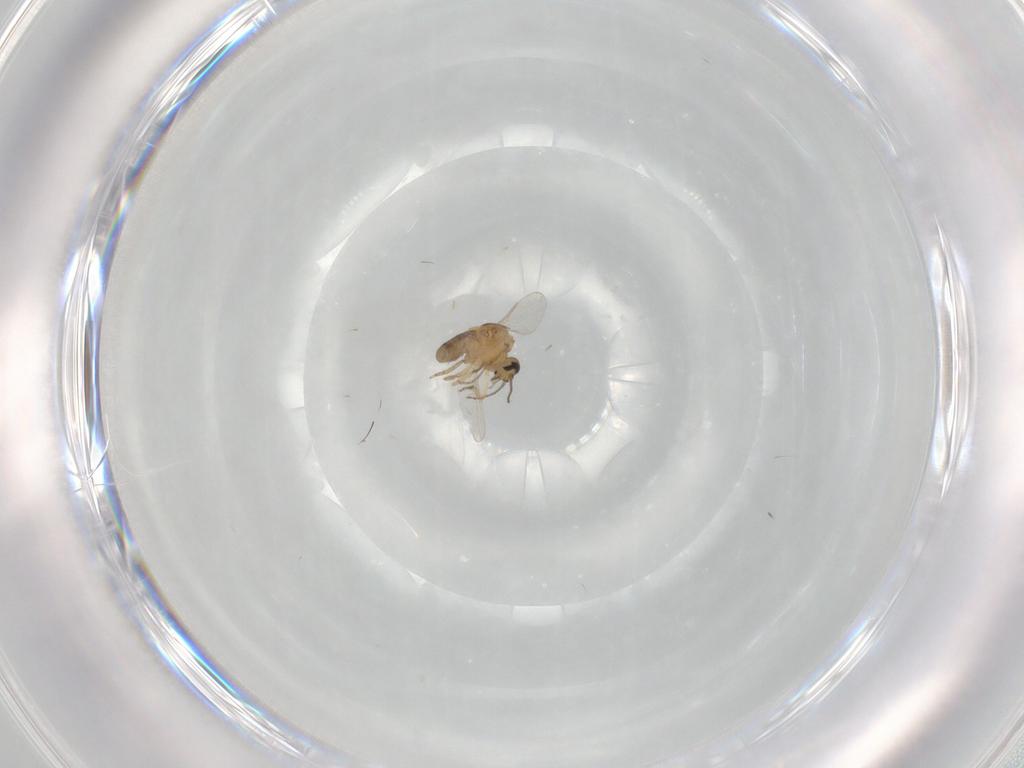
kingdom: Animalia
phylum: Arthropoda
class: Insecta
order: Diptera
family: Ceratopogonidae
